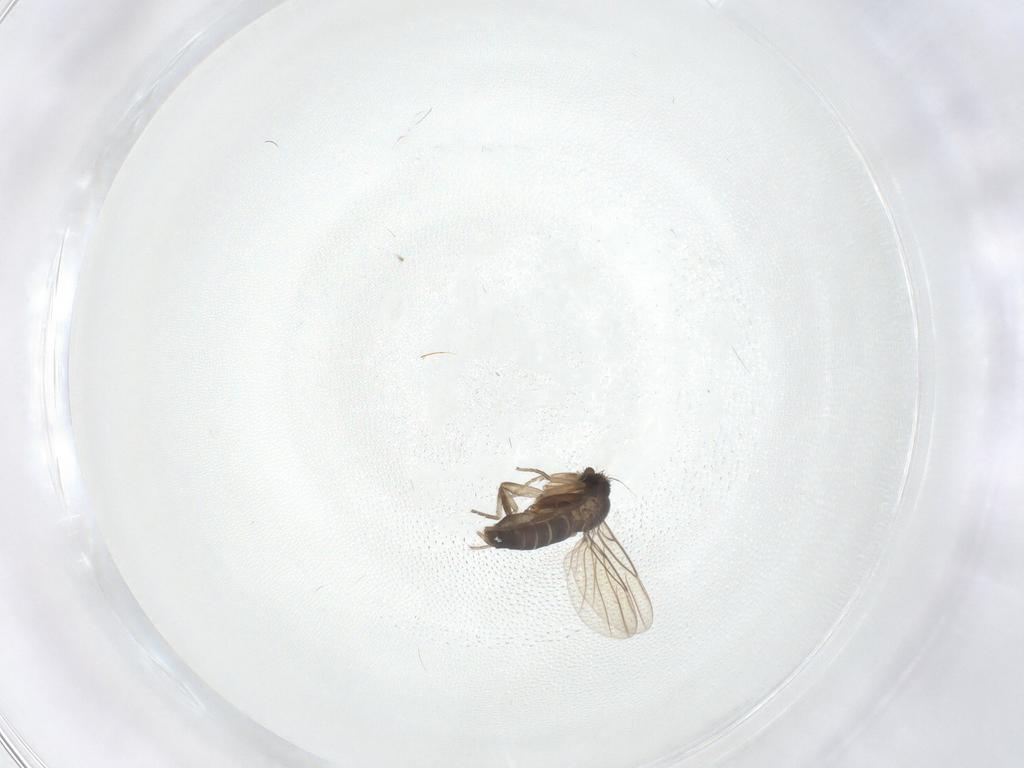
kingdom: Animalia
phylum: Arthropoda
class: Insecta
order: Diptera
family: Phoridae
